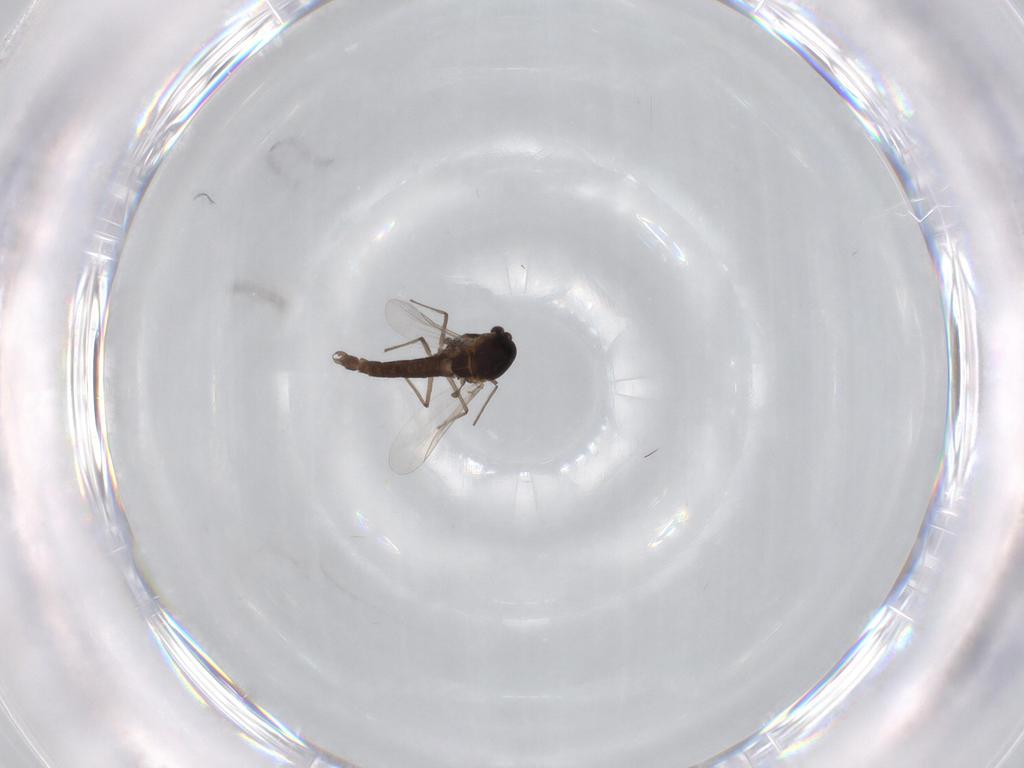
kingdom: Animalia
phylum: Arthropoda
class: Insecta
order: Diptera
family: Chironomidae
